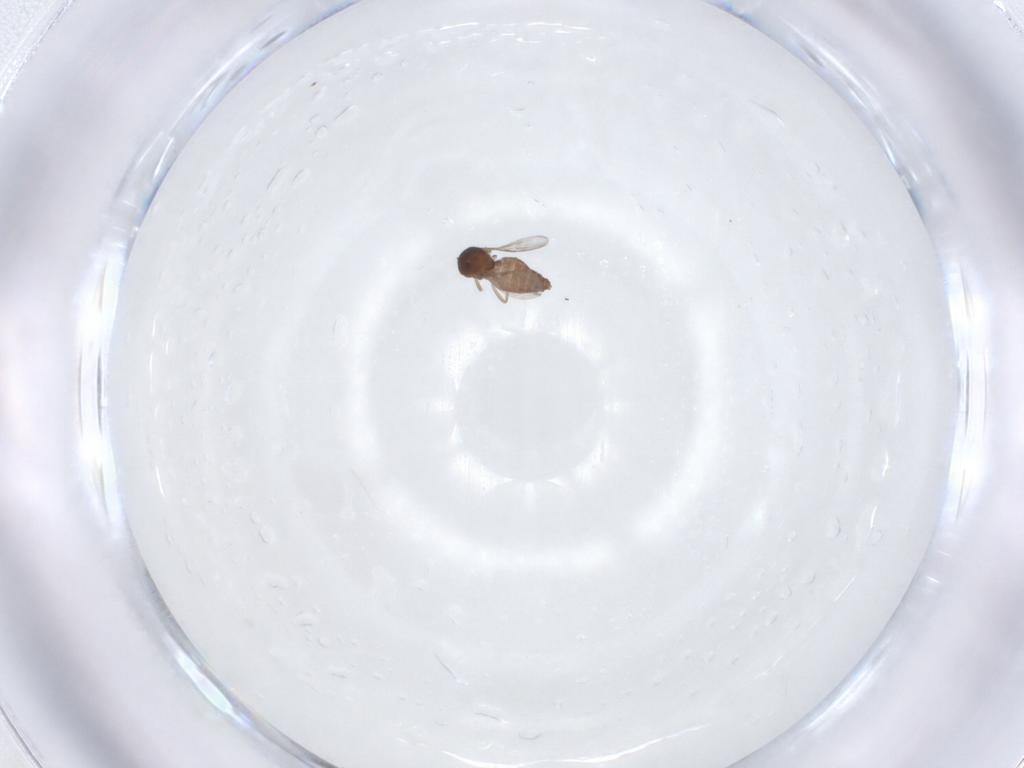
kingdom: Animalia
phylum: Arthropoda
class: Insecta
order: Diptera
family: Ceratopogonidae
